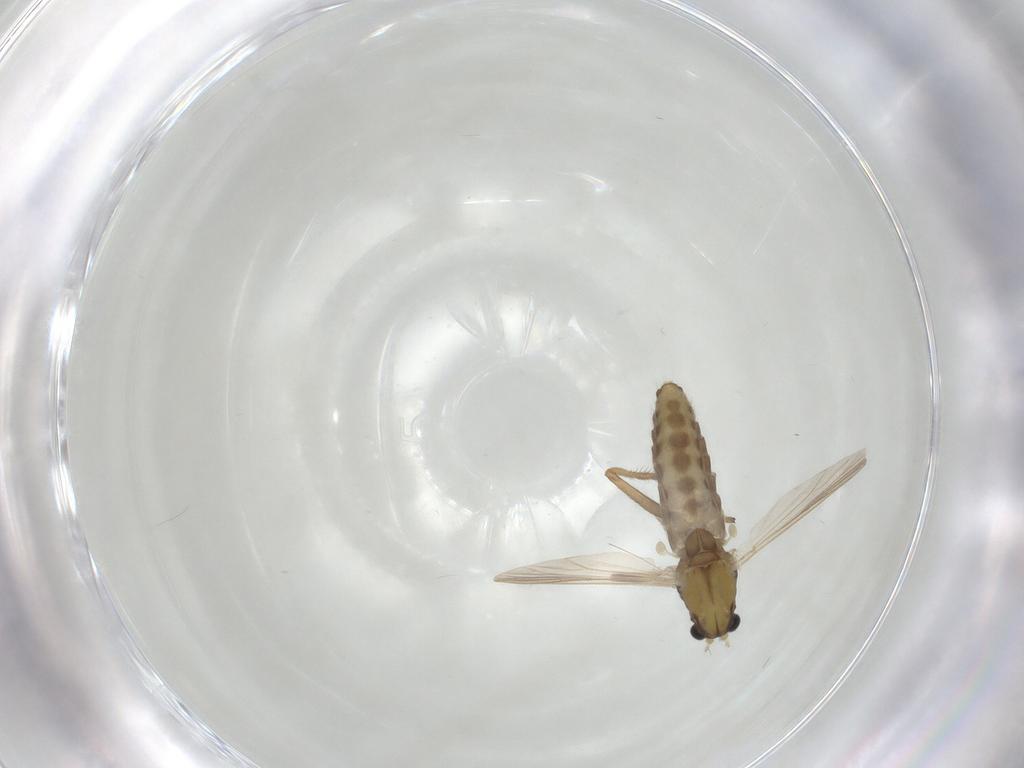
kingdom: Animalia
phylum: Arthropoda
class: Insecta
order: Diptera
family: Chironomidae
